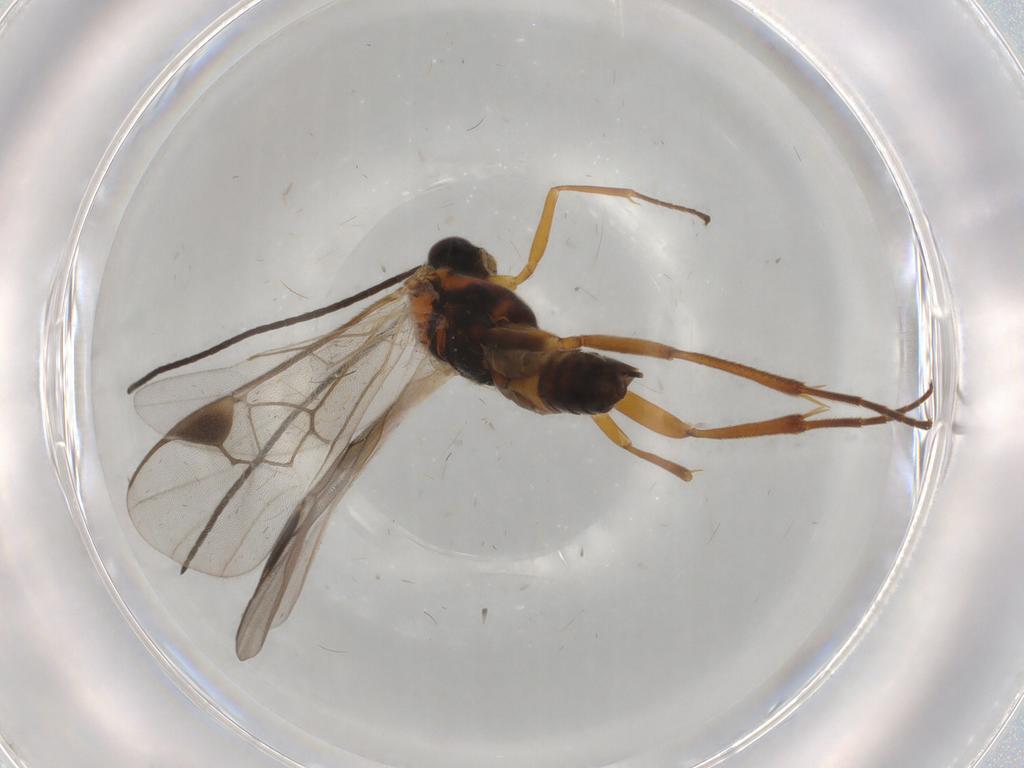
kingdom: Animalia
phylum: Arthropoda
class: Insecta
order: Hymenoptera
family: Braconidae
